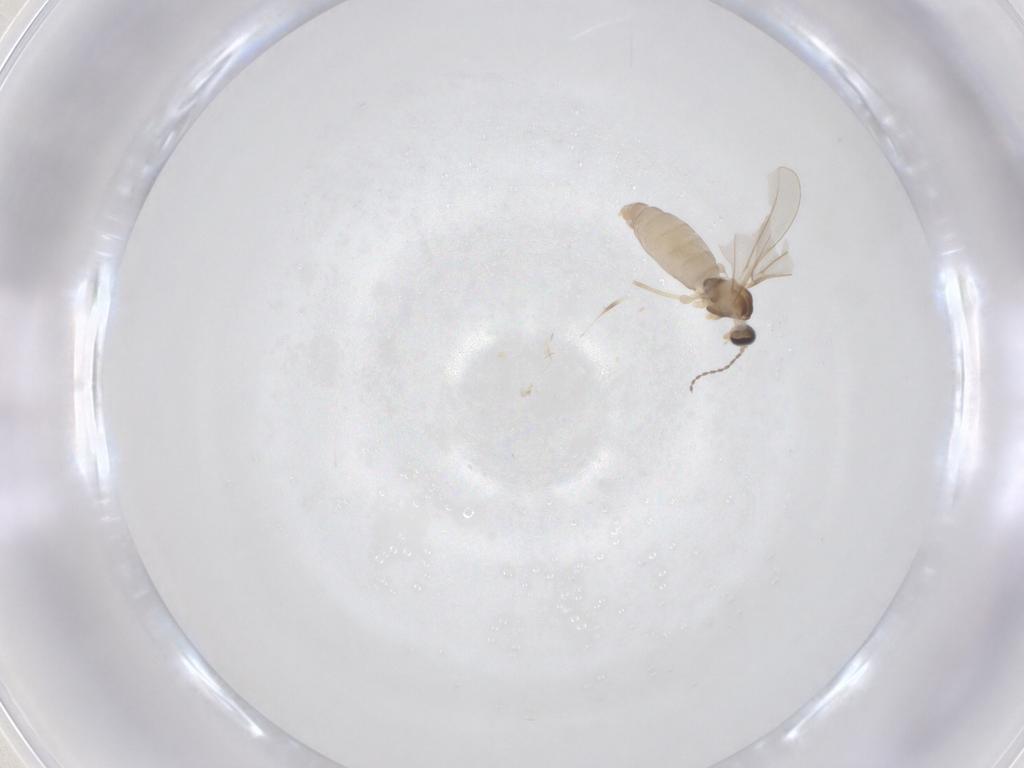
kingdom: Animalia
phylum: Arthropoda
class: Insecta
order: Diptera
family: Cecidomyiidae
